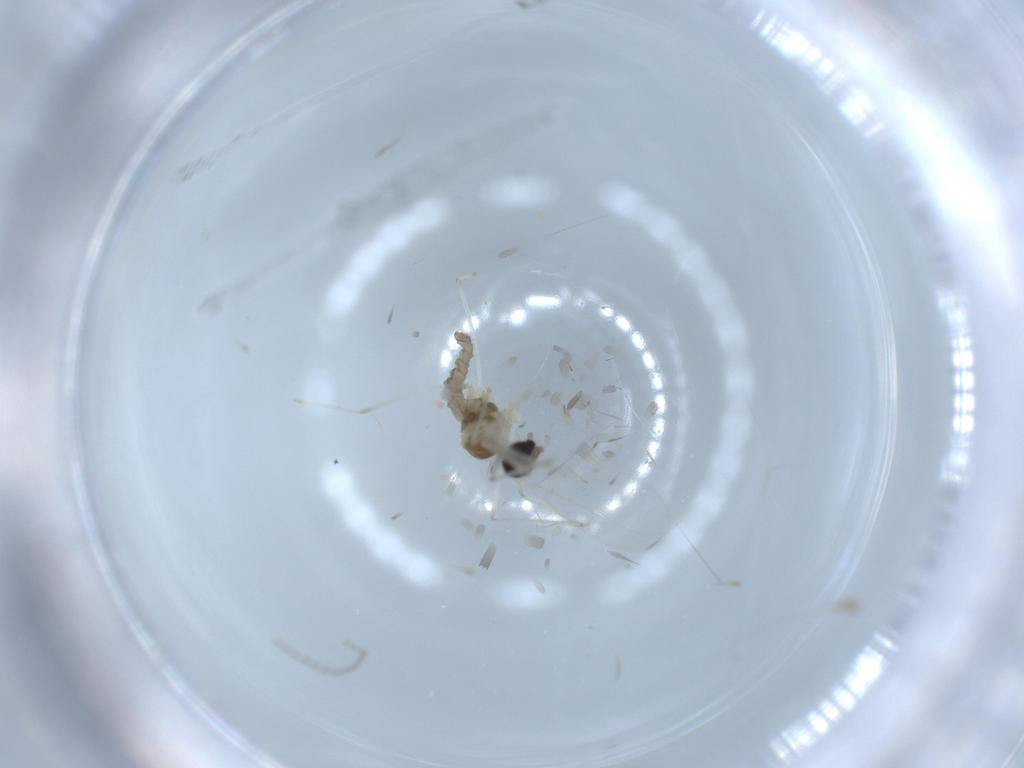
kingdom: Animalia
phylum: Arthropoda
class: Insecta
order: Diptera
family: Cecidomyiidae
